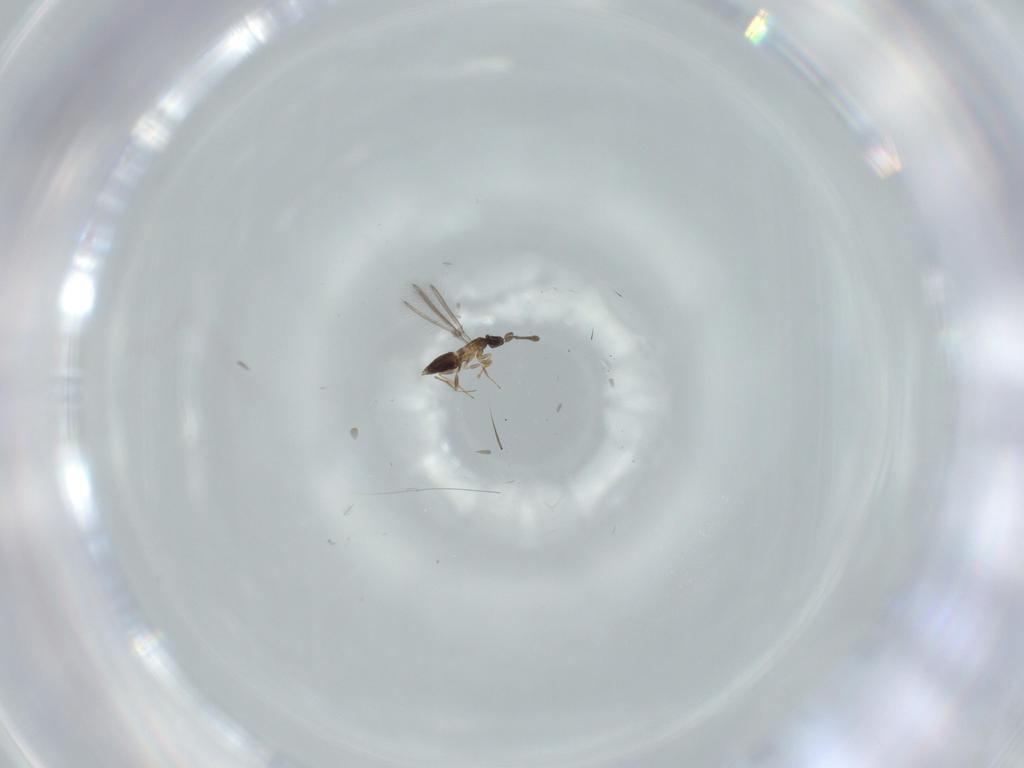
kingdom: Animalia
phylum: Arthropoda
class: Insecta
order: Hymenoptera
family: Mymaridae
